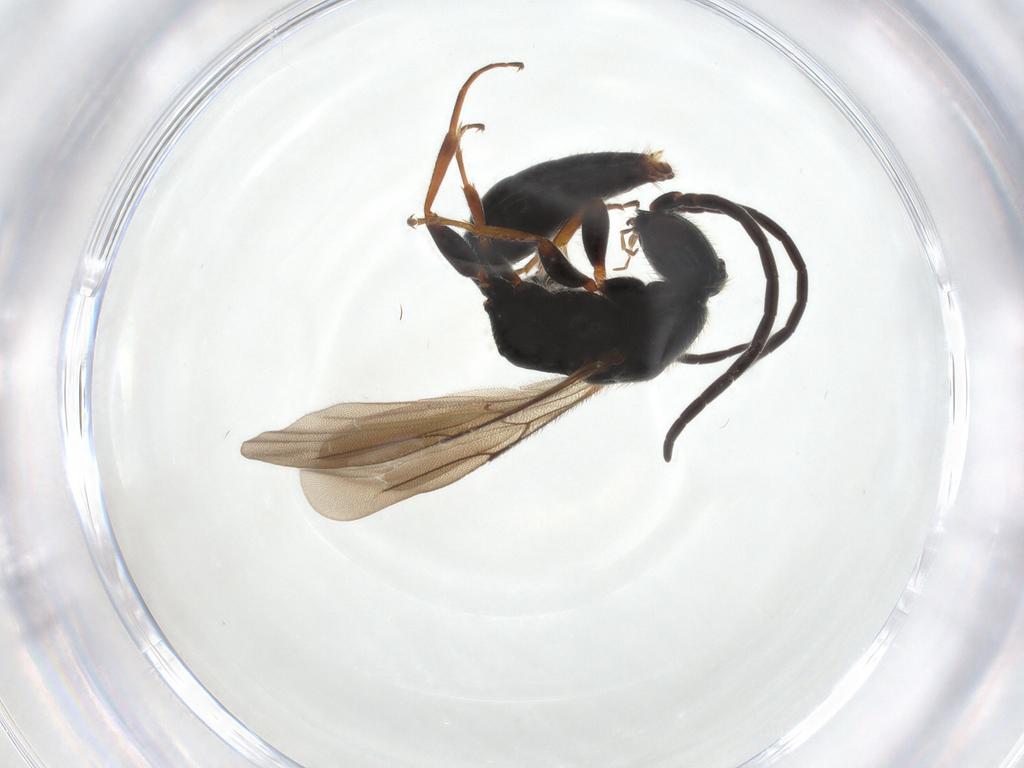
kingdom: Animalia
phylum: Arthropoda
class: Insecta
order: Hymenoptera
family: Bethylidae
